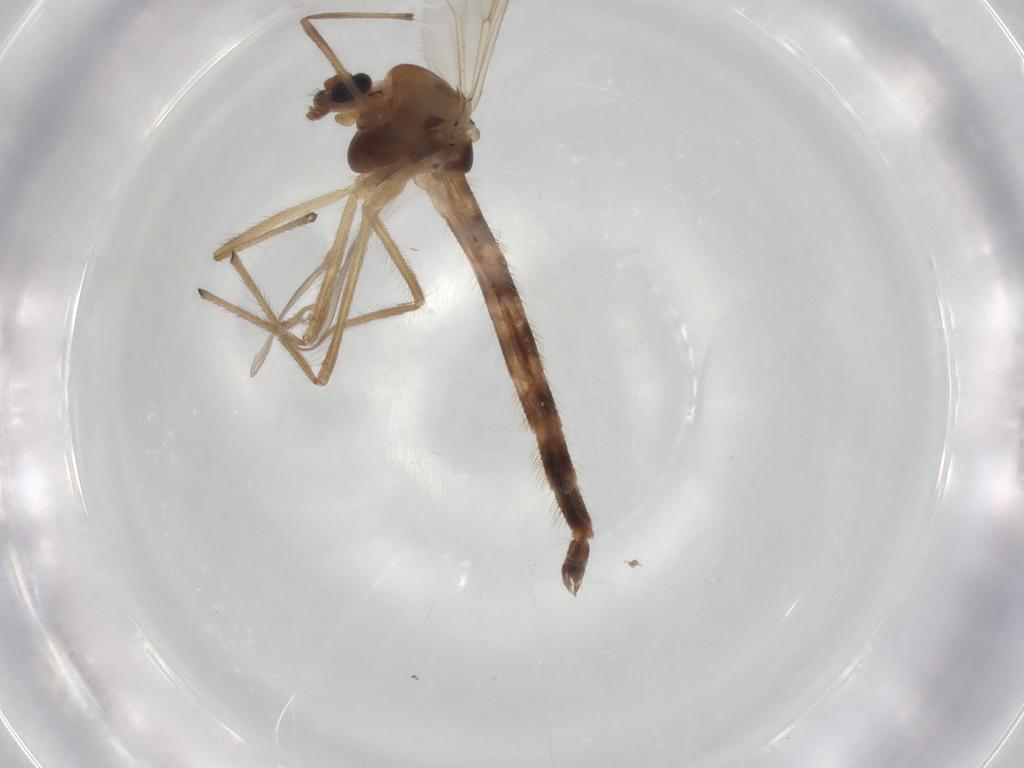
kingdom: Animalia
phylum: Arthropoda
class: Insecta
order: Diptera
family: Chironomidae
